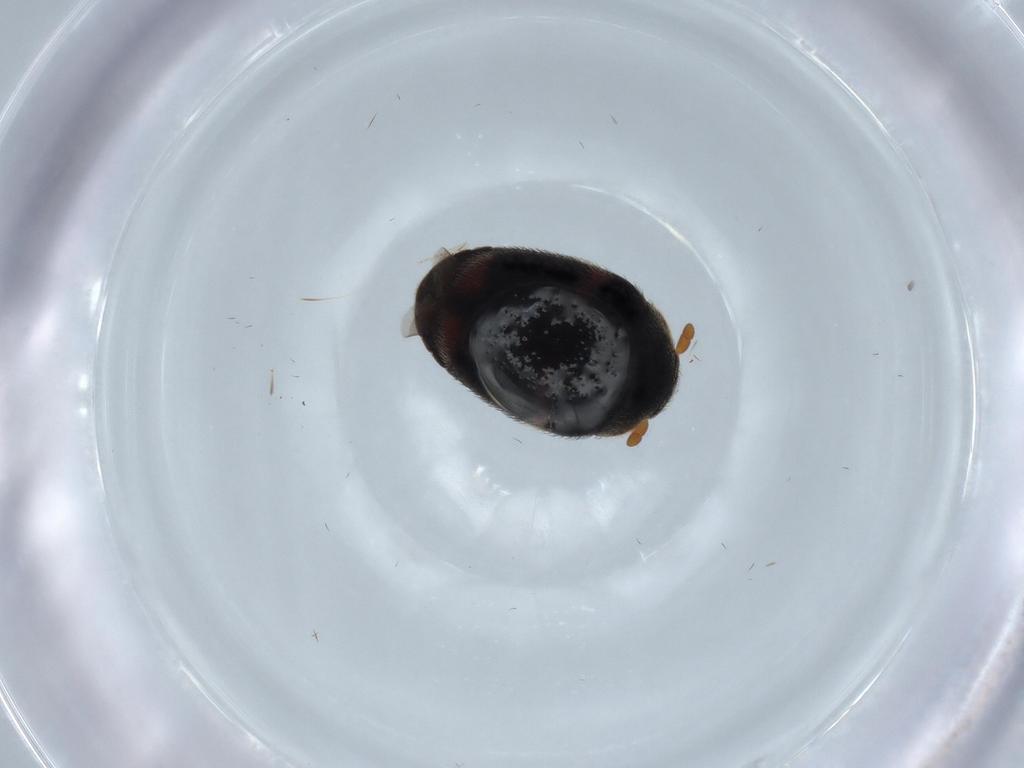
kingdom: Animalia
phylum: Arthropoda
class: Insecta
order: Coleoptera
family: Dermestidae
